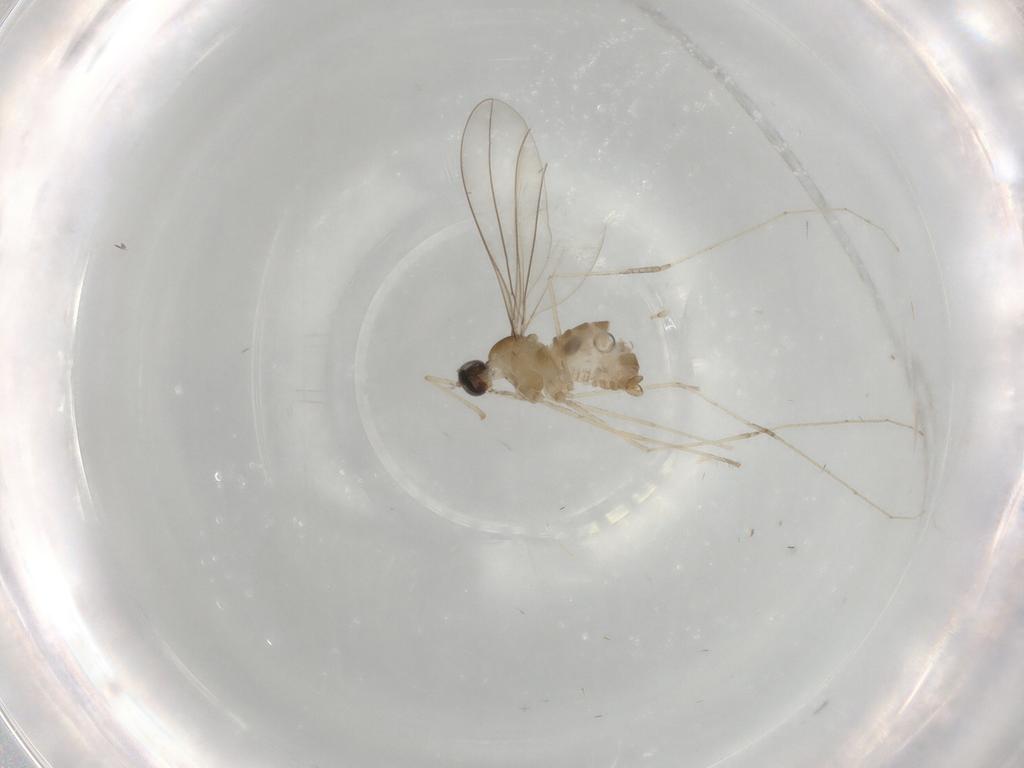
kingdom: Animalia
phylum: Arthropoda
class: Insecta
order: Diptera
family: Cecidomyiidae
